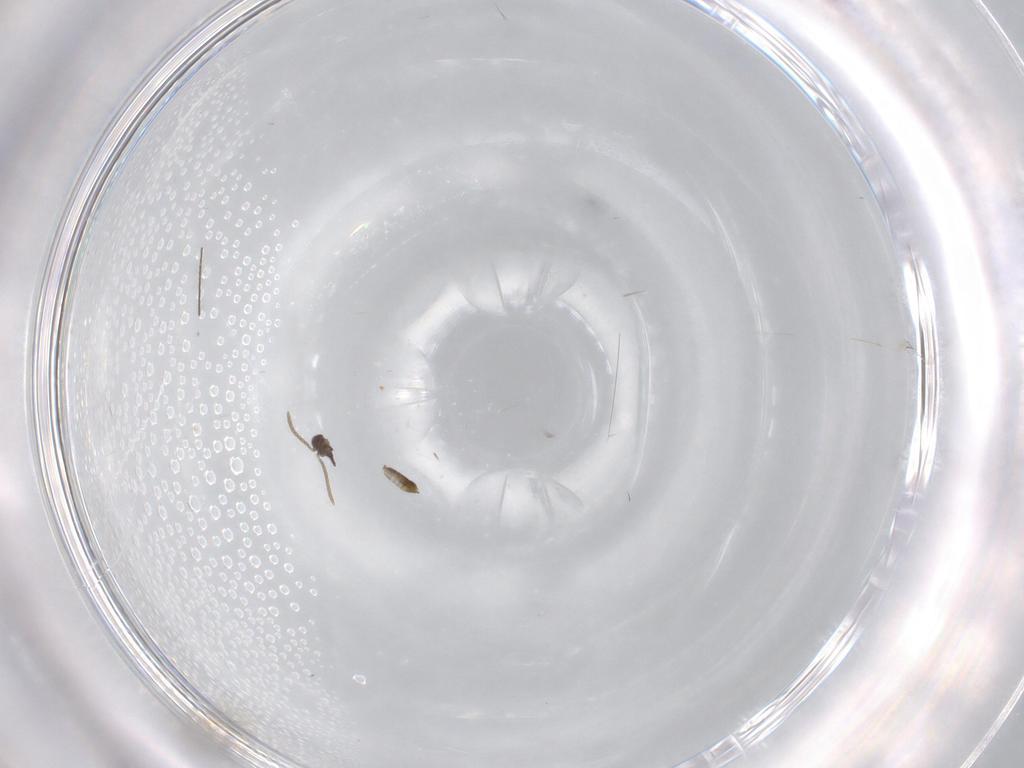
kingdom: Animalia
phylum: Arthropoda
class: Insecta
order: Hymenoptera
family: Eupelmidae
